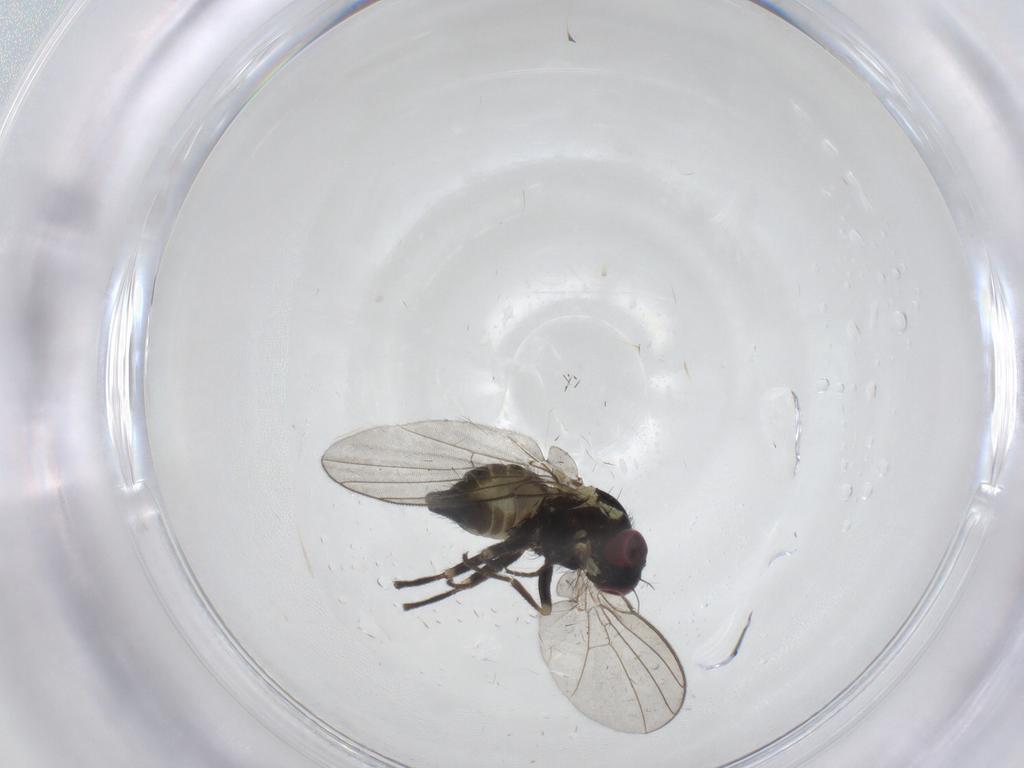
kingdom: Animalia
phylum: Arthropoda
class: Insecta
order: Diptera
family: Agromyzidae
